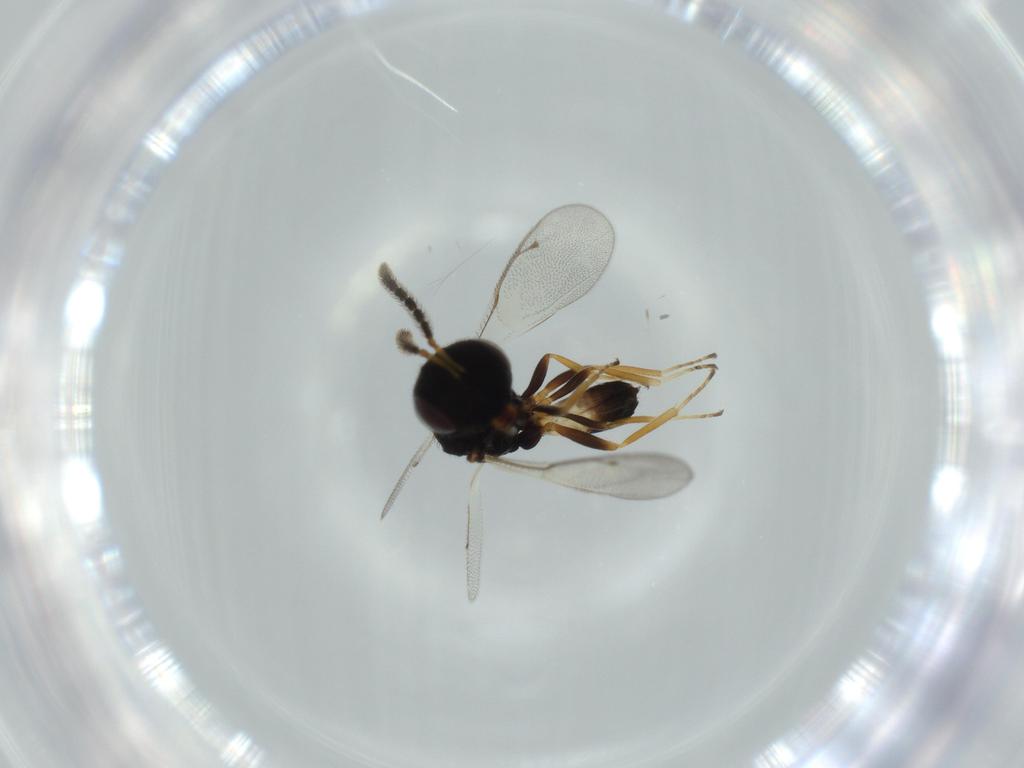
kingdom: Animalia
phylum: Arthropoda
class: Insecta
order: Hymenoptera
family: Pteromalidae
